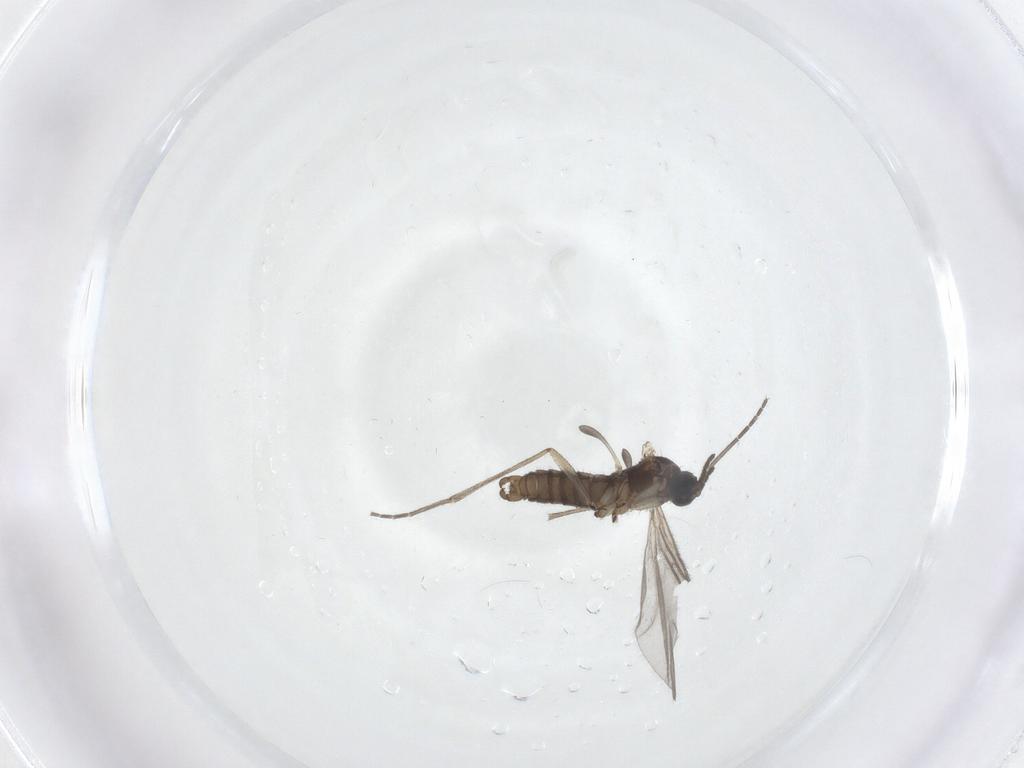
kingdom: Animalia
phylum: Arthropoda
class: Insecta
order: Diptera
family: Sciaridae
